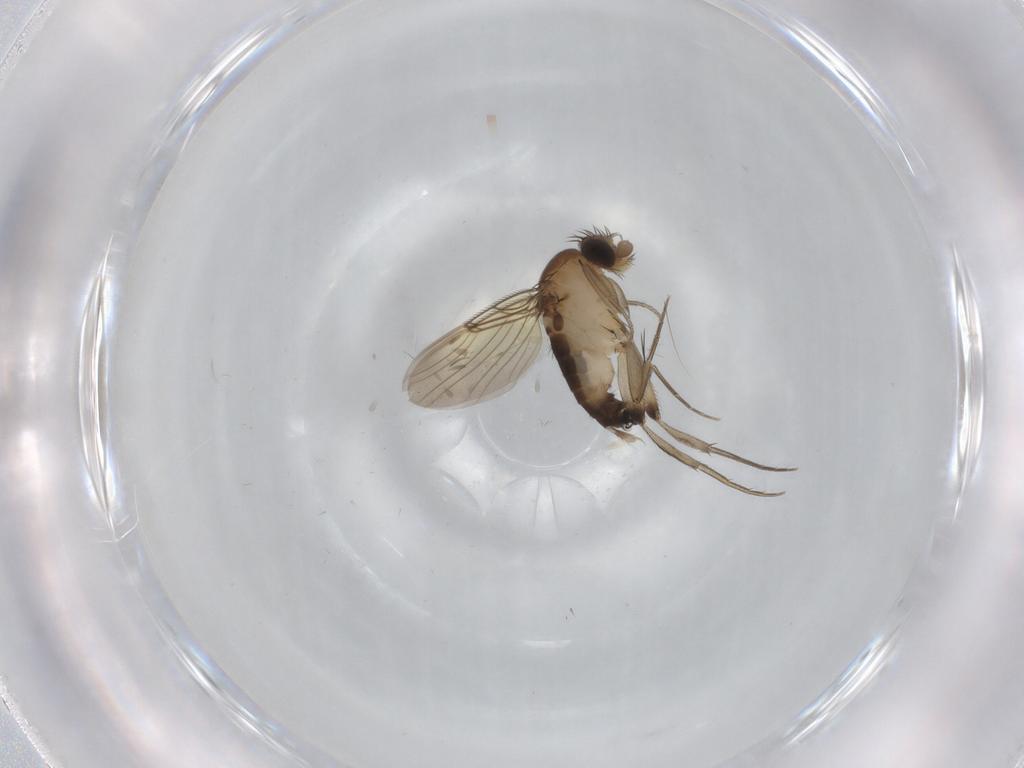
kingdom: Animalia
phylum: Arthropoda
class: Insecta
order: Diptera
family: Phoridae
